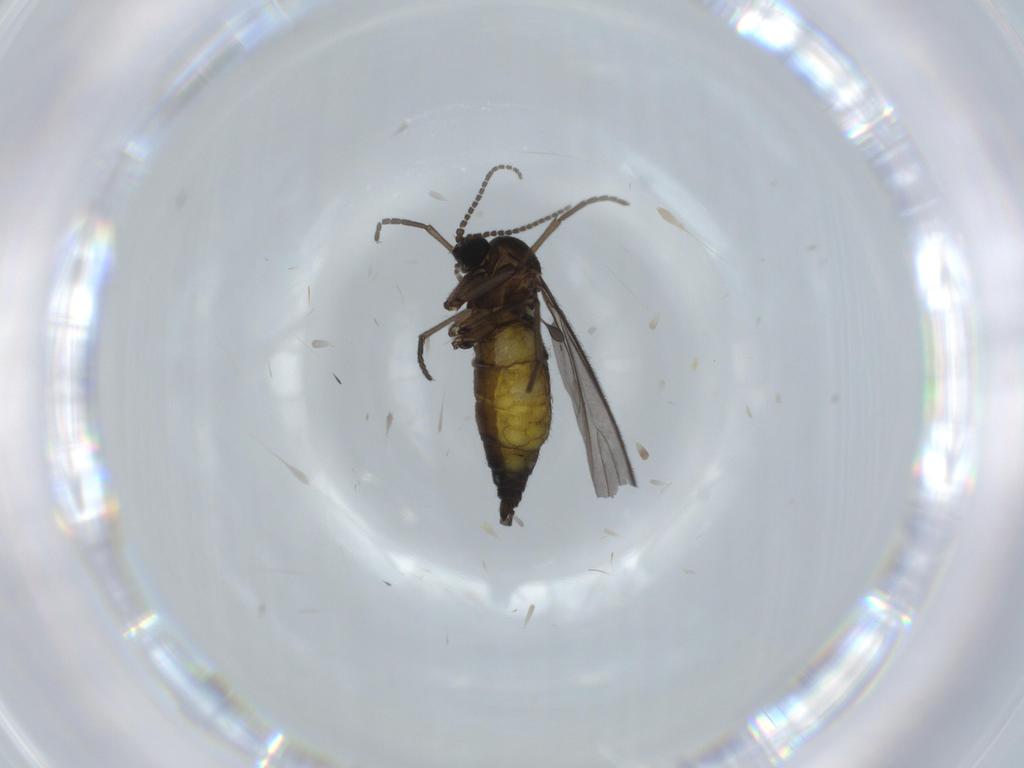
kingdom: Animalia
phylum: Arthropoda
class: Insecta
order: Diptera
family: Sciaridae
